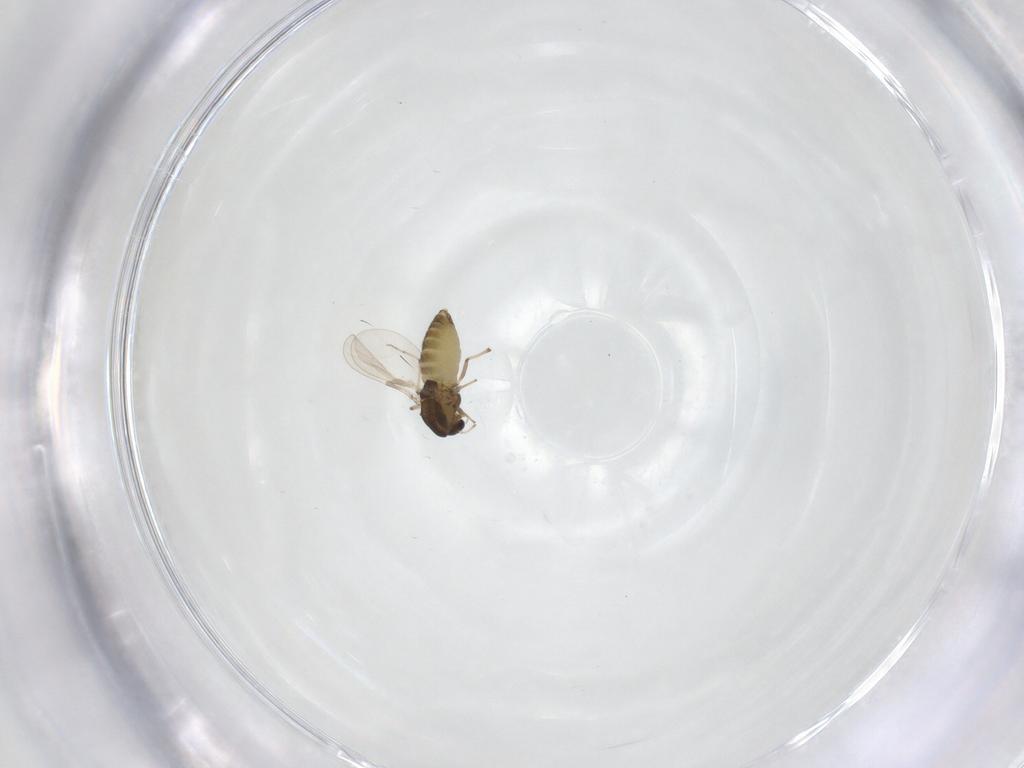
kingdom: Animalia
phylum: Arthropoda
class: Insecta
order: Diptera
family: Chironomidae
